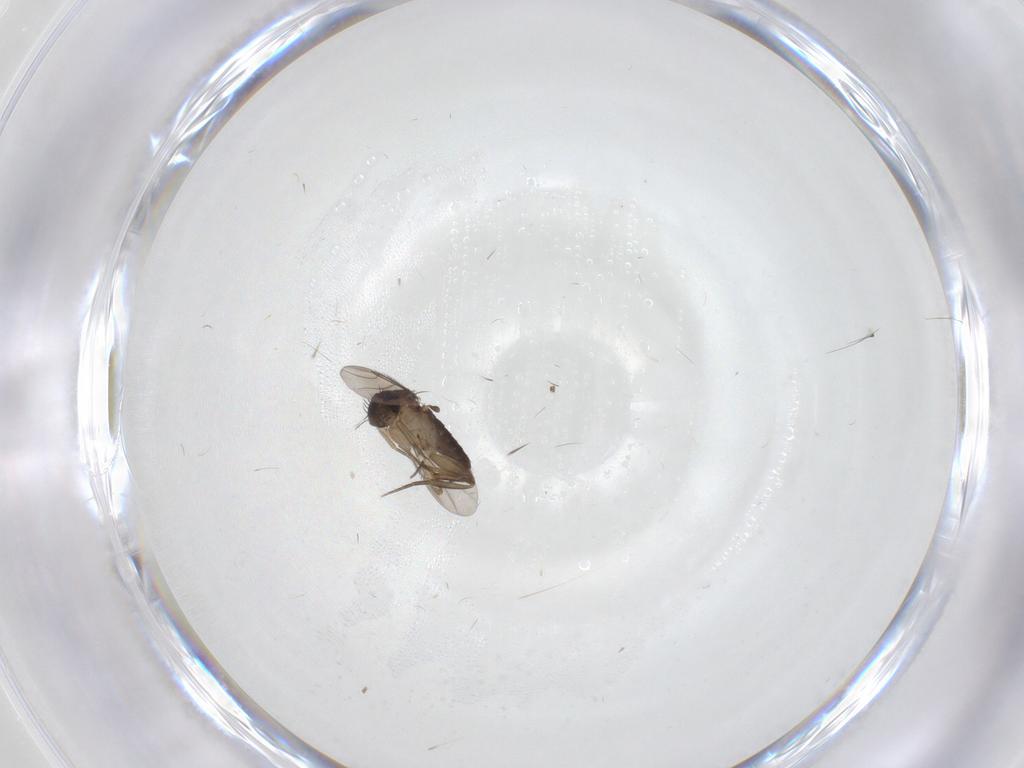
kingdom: Animalia
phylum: Arthropoda
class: Insecta
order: Diptera
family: Phoridae
